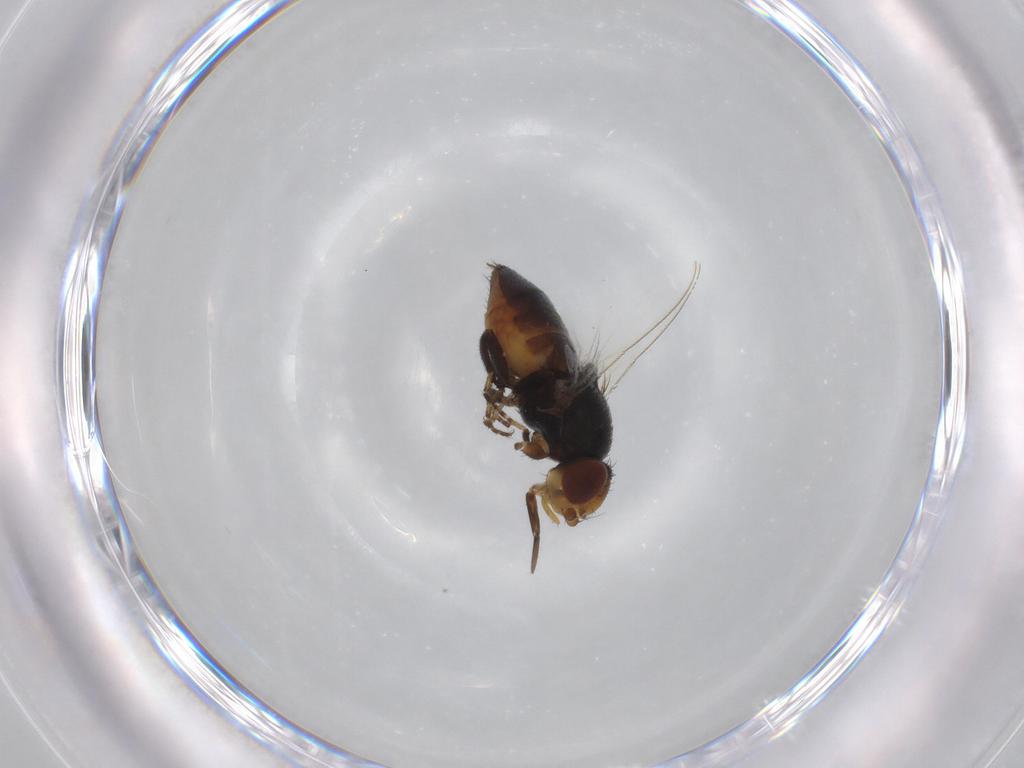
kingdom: Animalia
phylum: Arthropoda
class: Insecta
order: Diptera
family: Milichiidae
